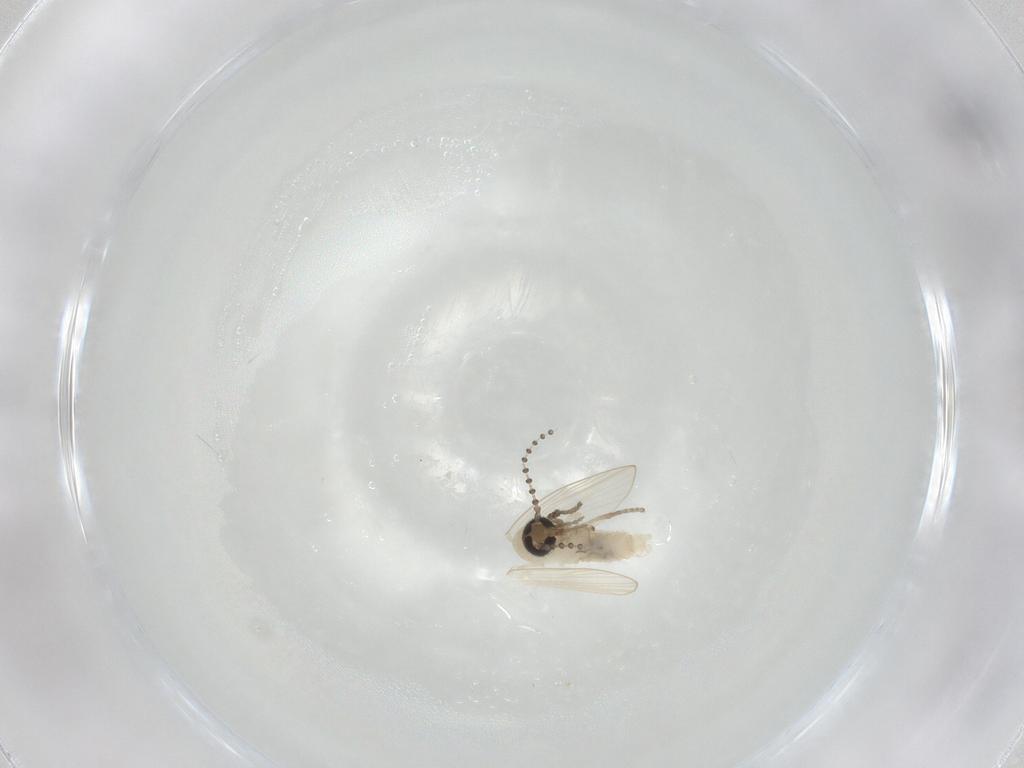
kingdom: Animalia
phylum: Arthropoda
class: Insecta
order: Diptera
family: Psychodidae
